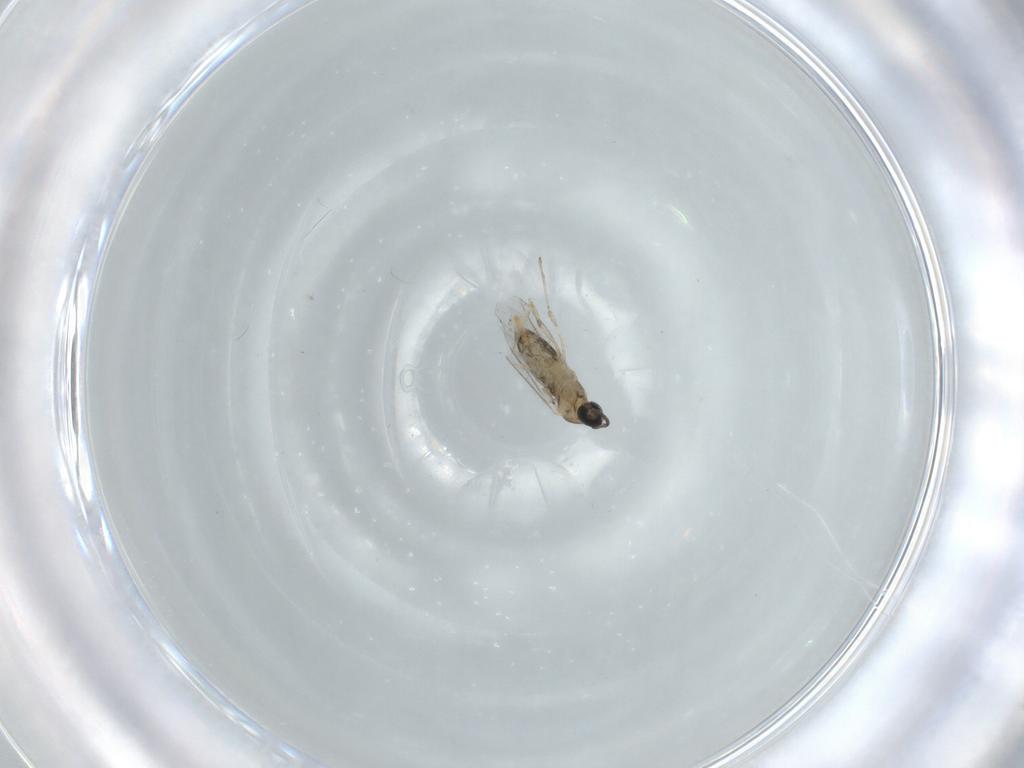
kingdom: Animalia
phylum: Arthropoda
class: Insecta
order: Diptera
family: Cecidomyiidae
